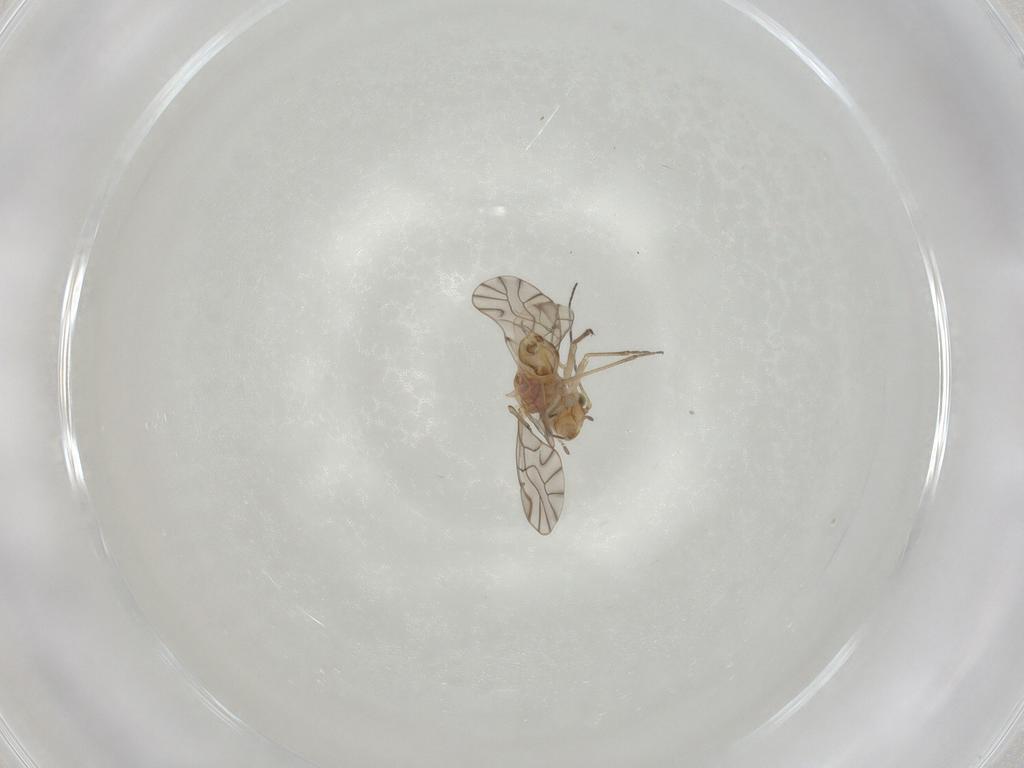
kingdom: Animalia
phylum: Arthropoda
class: Insecta
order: Psocodea
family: Lachesillidae
